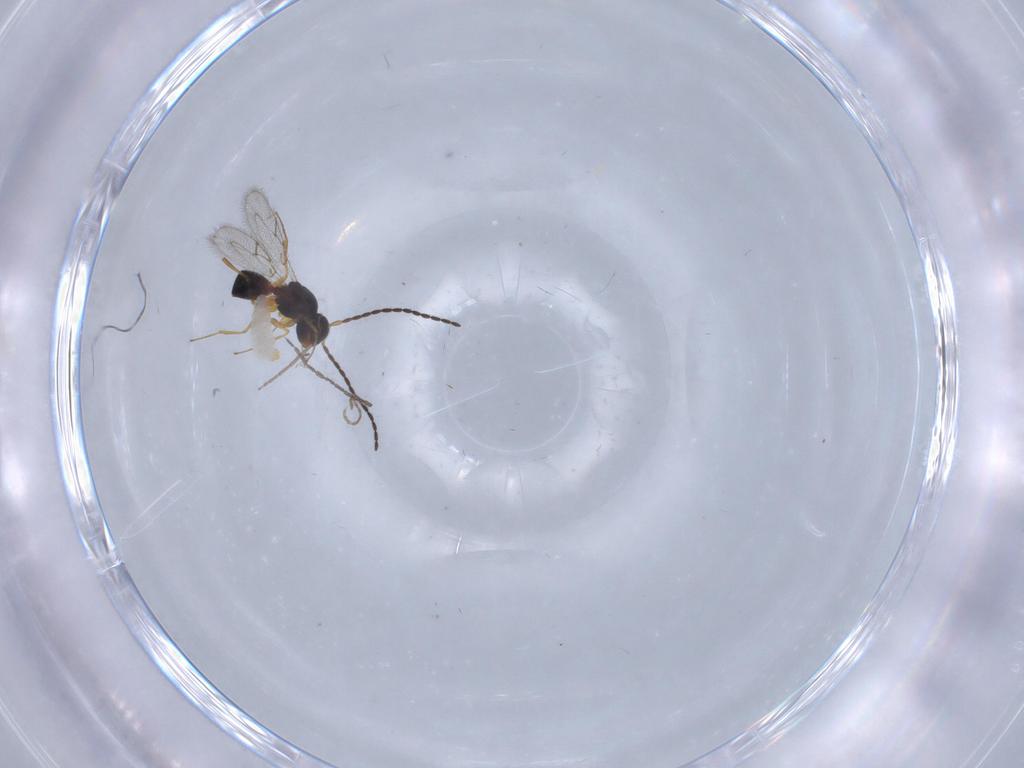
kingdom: Animalia
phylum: Arthropoda
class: Insecta
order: Hymenoptera
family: Figitidae
